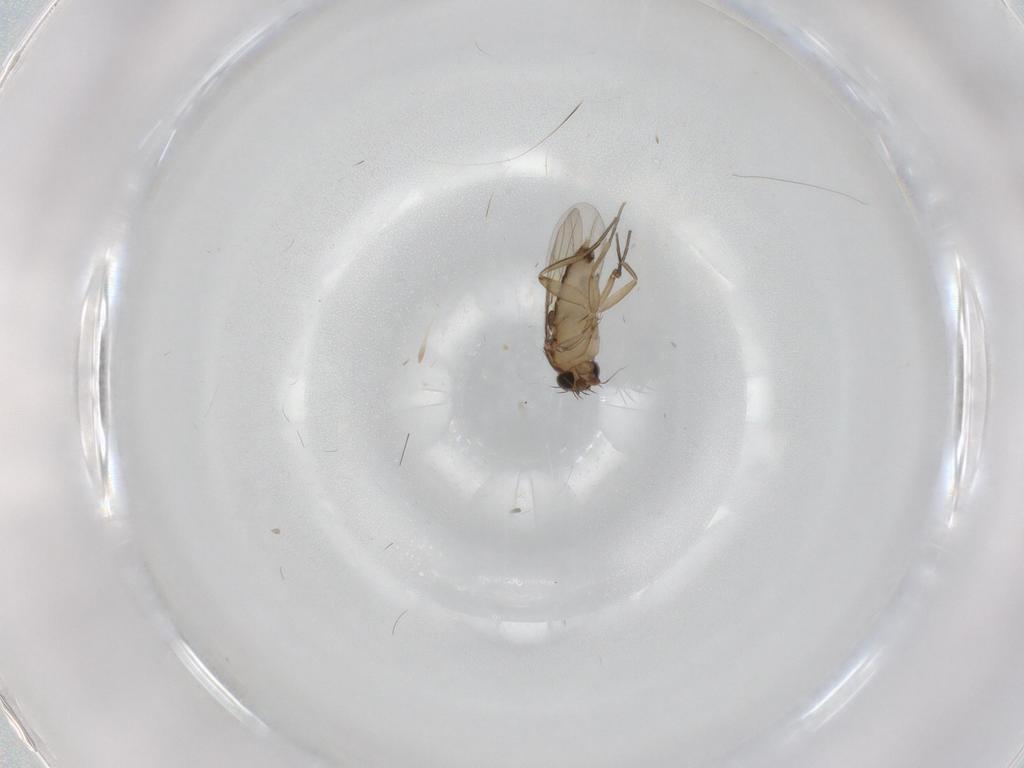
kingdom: Animalia
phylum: Arthropoda
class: Insecta
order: Diptera
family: Phoridae
